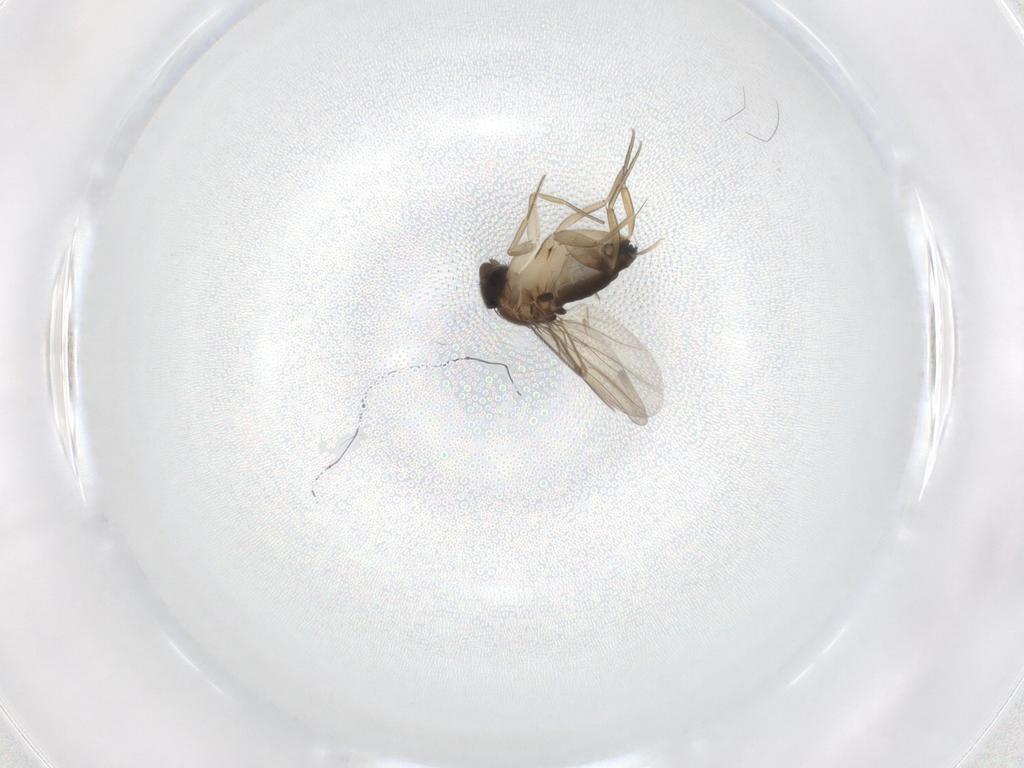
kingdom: Animalia
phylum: Arthropoda
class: Insecta
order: Diptera
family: Phoridae
